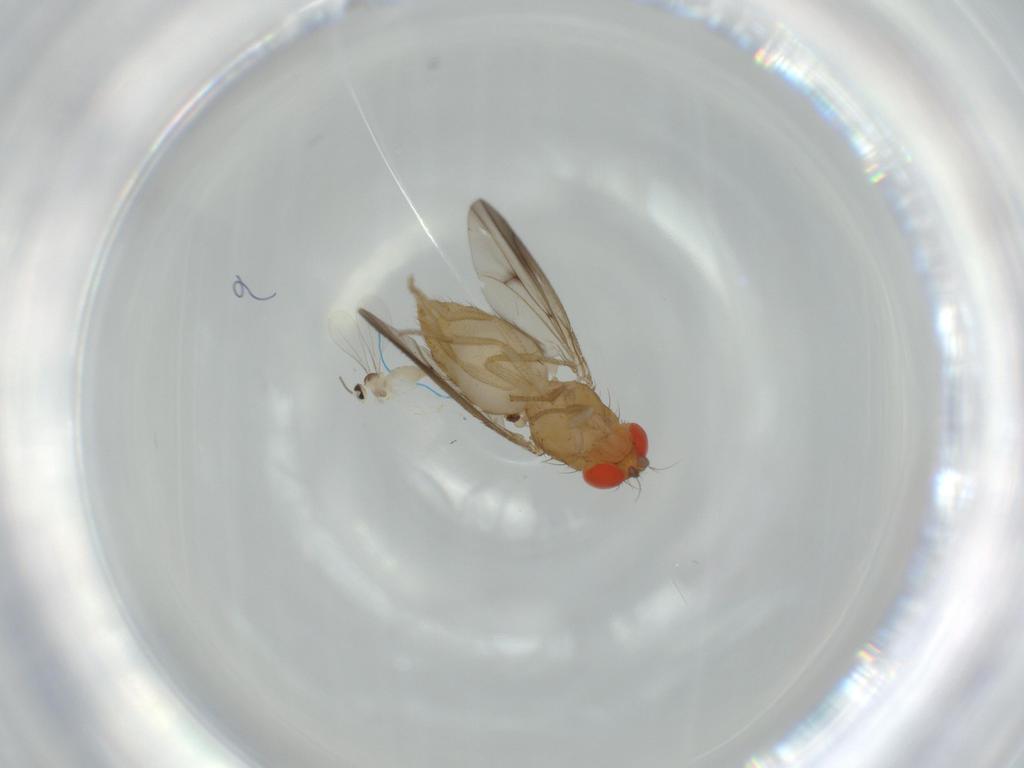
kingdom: Animalia
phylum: Arthropoda
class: Insecta
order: Diptera
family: Drosophilidae
